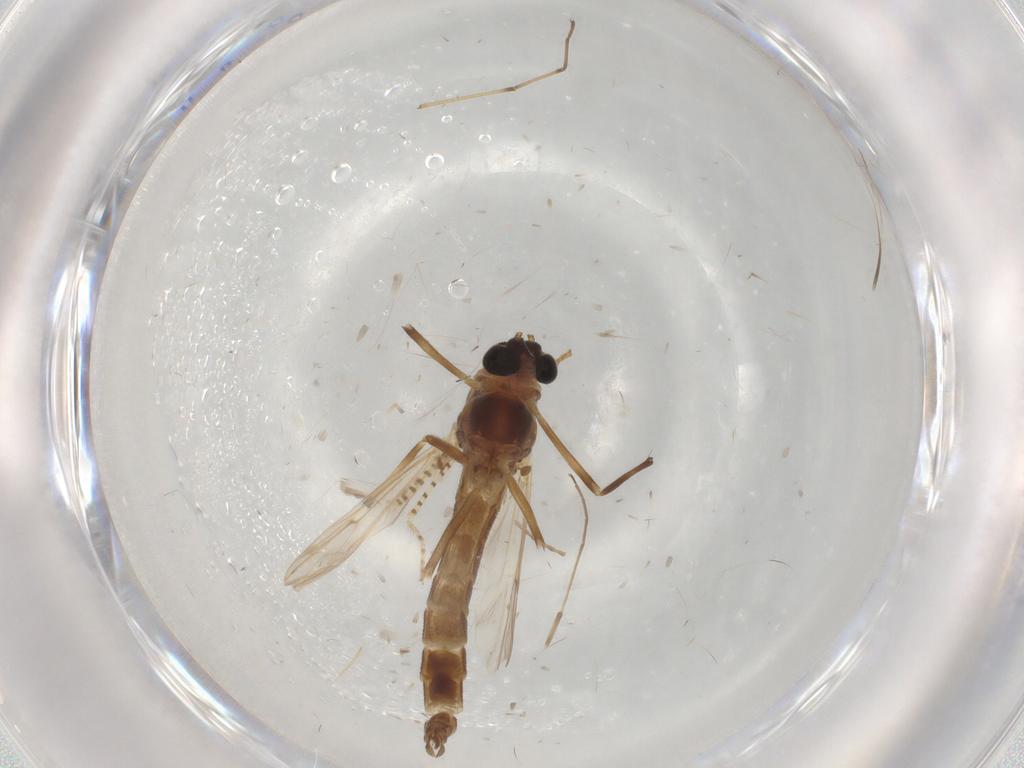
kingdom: Animalia
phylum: Arthropoda
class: Insecta
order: Diptera
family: Chironomidae
